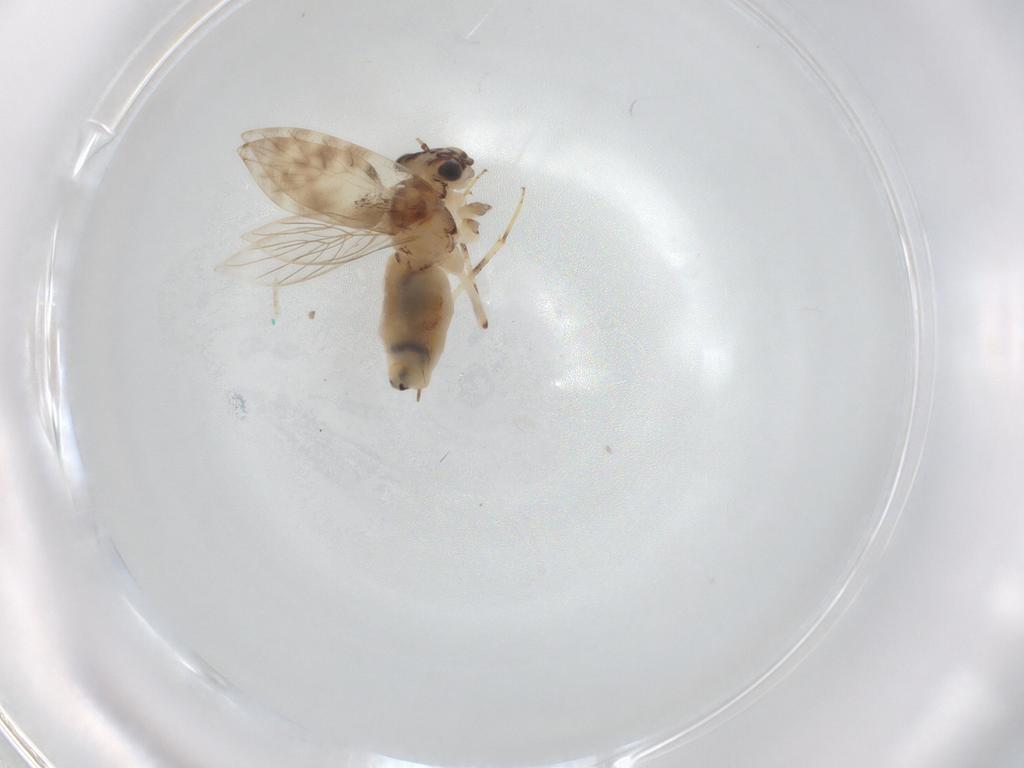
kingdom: Animalia
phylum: Arthropoda
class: Insecta
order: Psocodea
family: Lepidopsocidae
